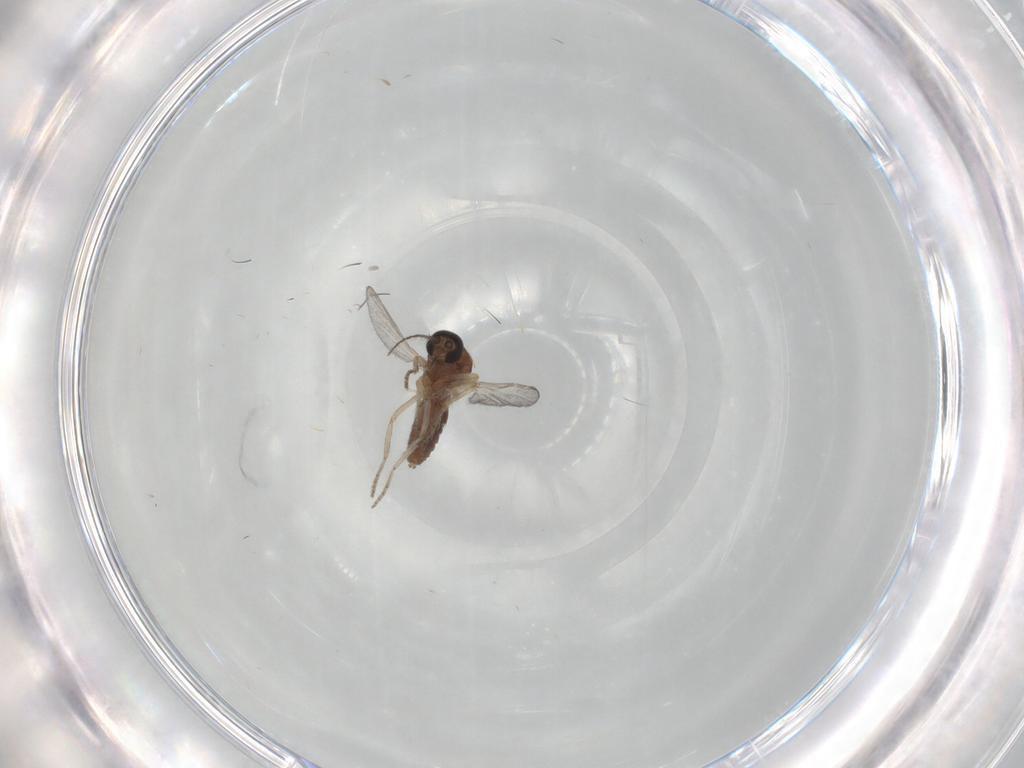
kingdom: Animalia
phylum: Arthropoda
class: Insecta
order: Diptera
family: Ceratopogonidae
